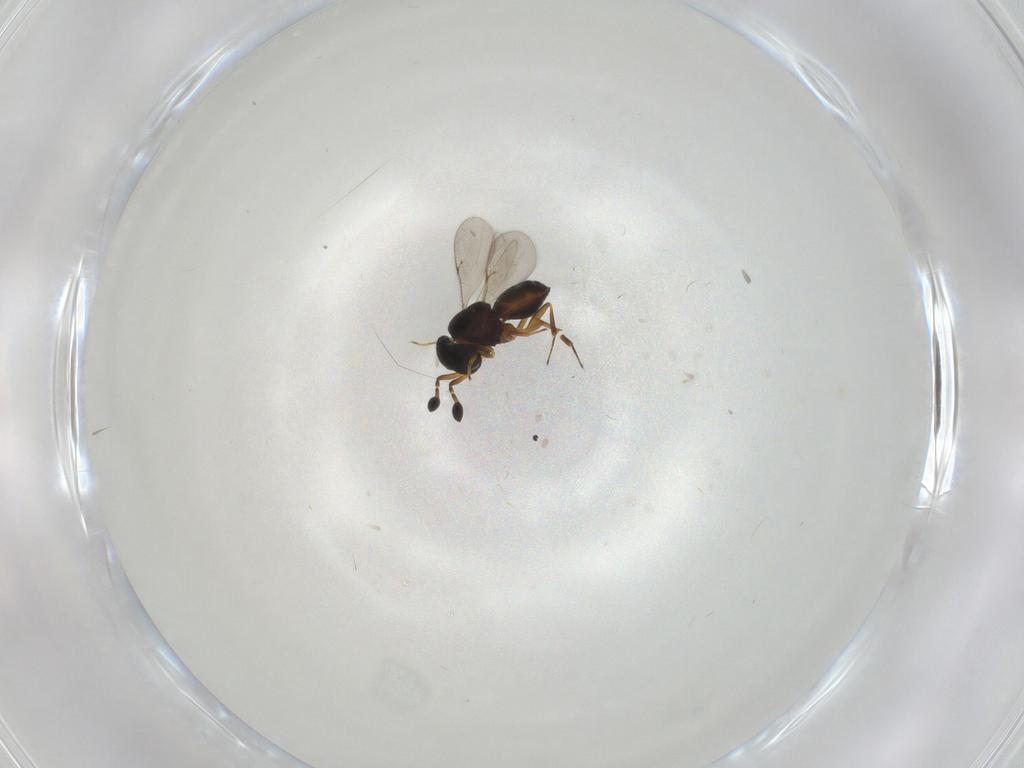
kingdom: Animalia
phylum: Arthropoda
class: Insecta
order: Hymenoptera
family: Scelionidae
